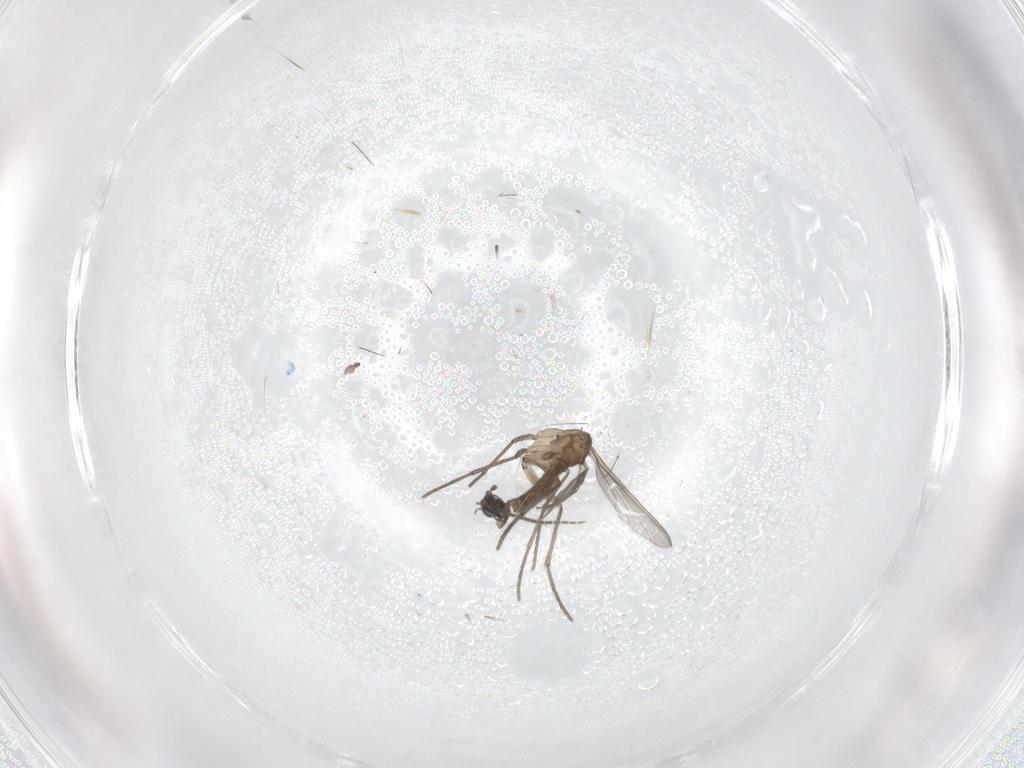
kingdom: Animalia
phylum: Arthropoda
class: Insecta
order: Diptera
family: Sciaridae
